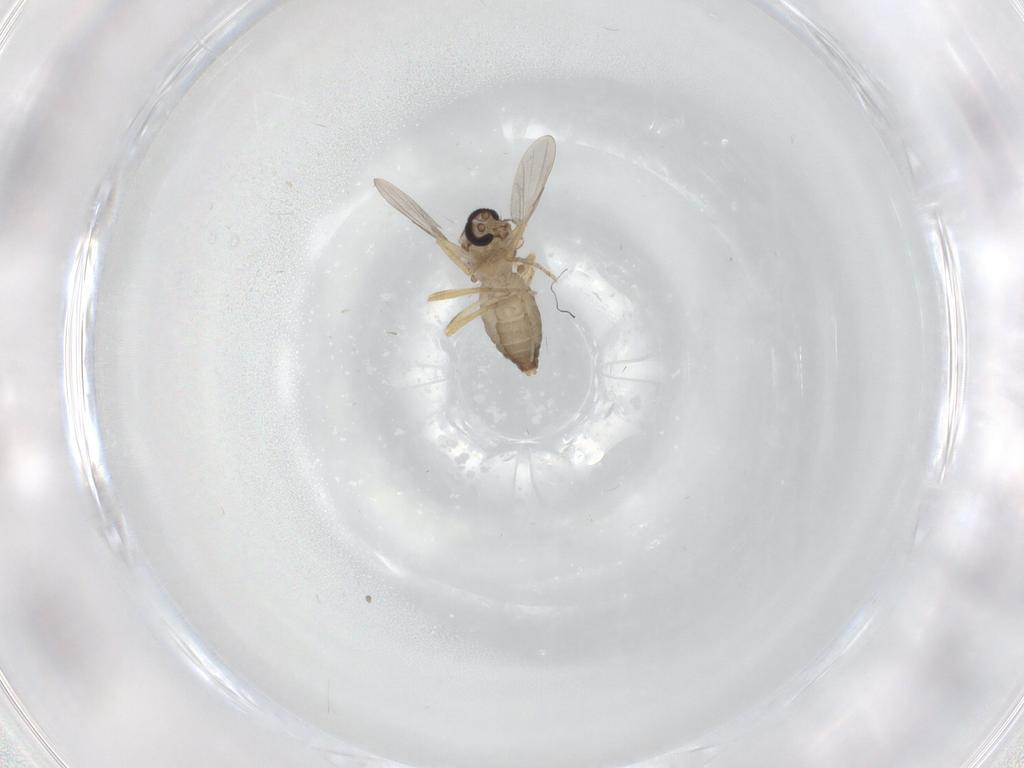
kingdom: Animalia
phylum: Arthropoda
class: Insecta
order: Diptera
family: Ceratopogonidae
